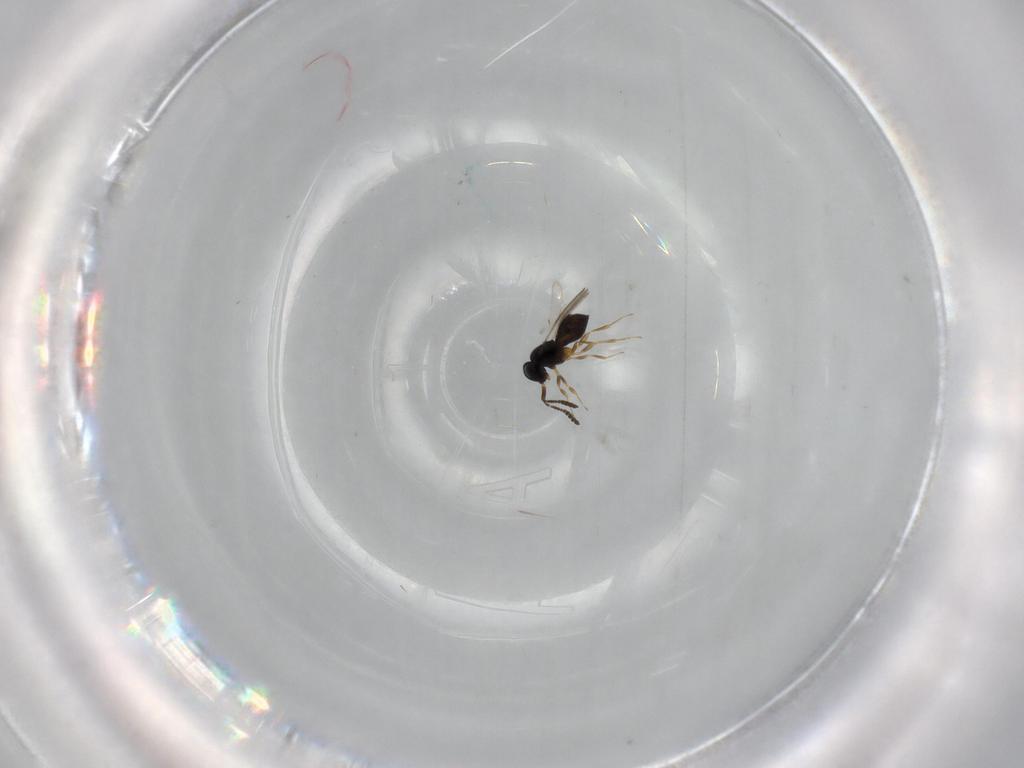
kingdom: Animalia
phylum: Arthropoda
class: Insecta
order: Hymenoptera
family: Scelionidae
